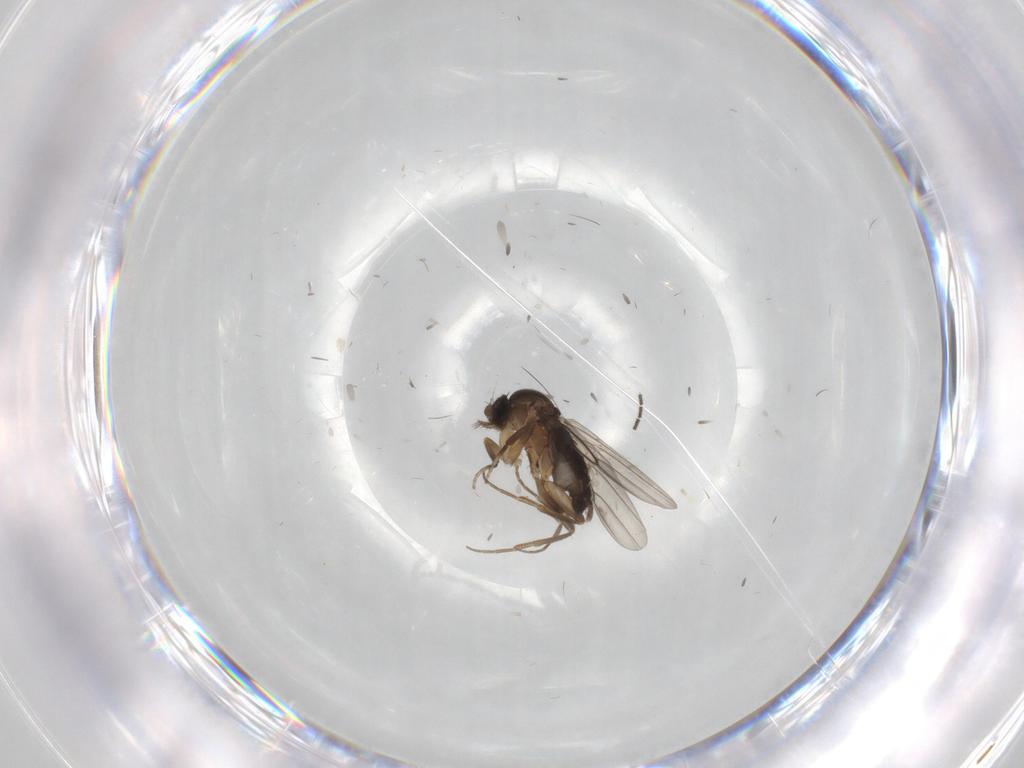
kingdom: Animalia
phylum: Arthropoda
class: Insecta
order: Diptera
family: Phoridae
